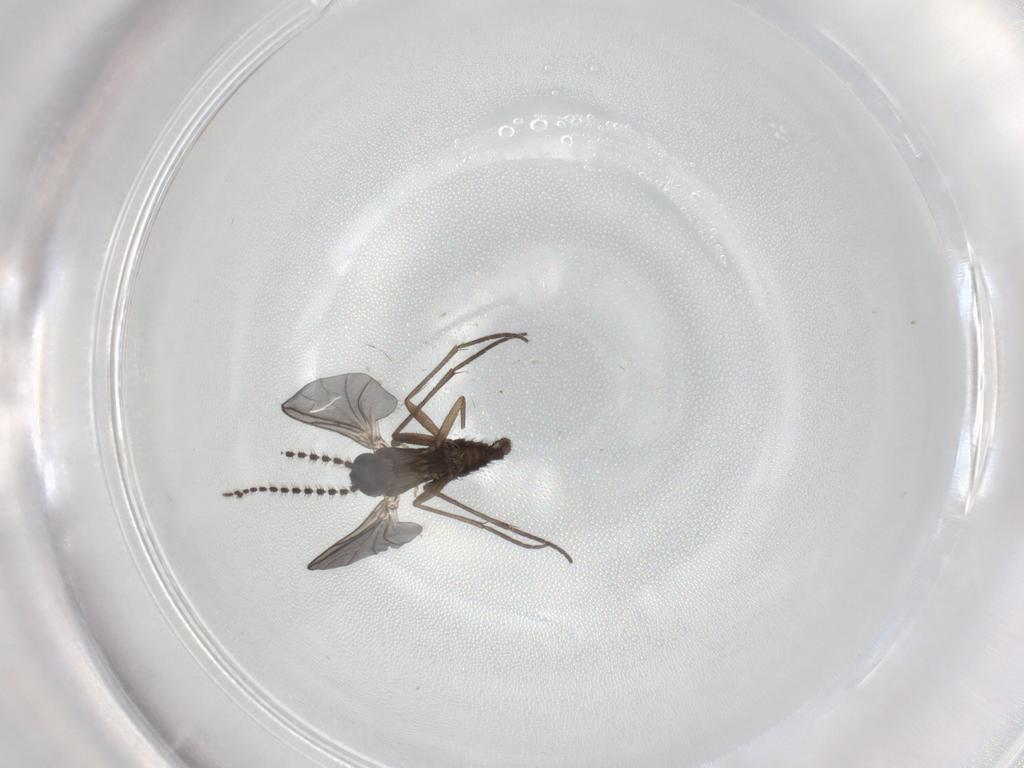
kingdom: Animalia
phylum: Arthropoda
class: Insecta
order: Diptera
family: Sciaridae
